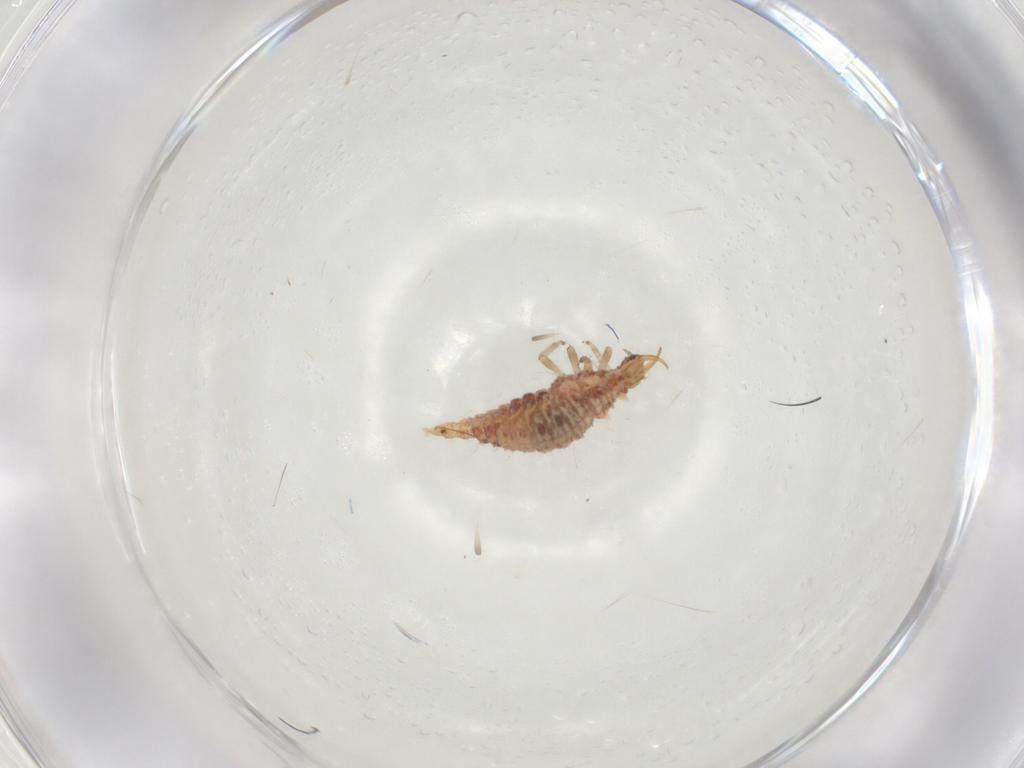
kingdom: Animalia
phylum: Arthropoda
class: Insecta
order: Neuroptera
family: Chrysopidae
